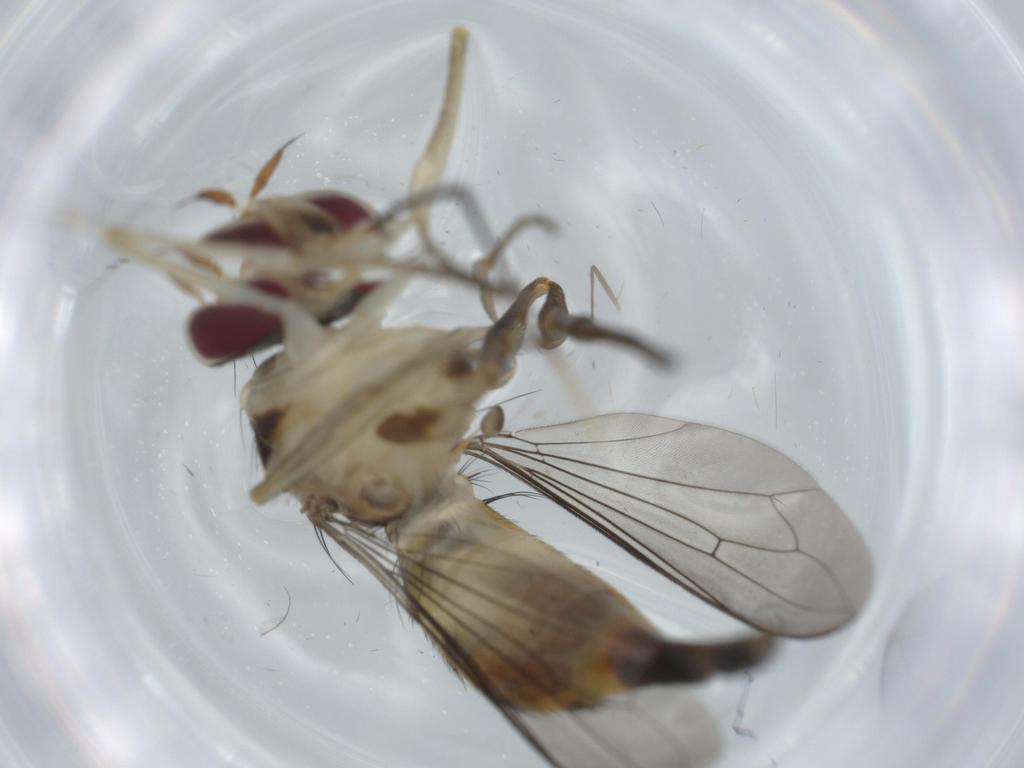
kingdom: Animalia
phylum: Arthropoda
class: Insecta
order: Diptera
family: Conopidae
